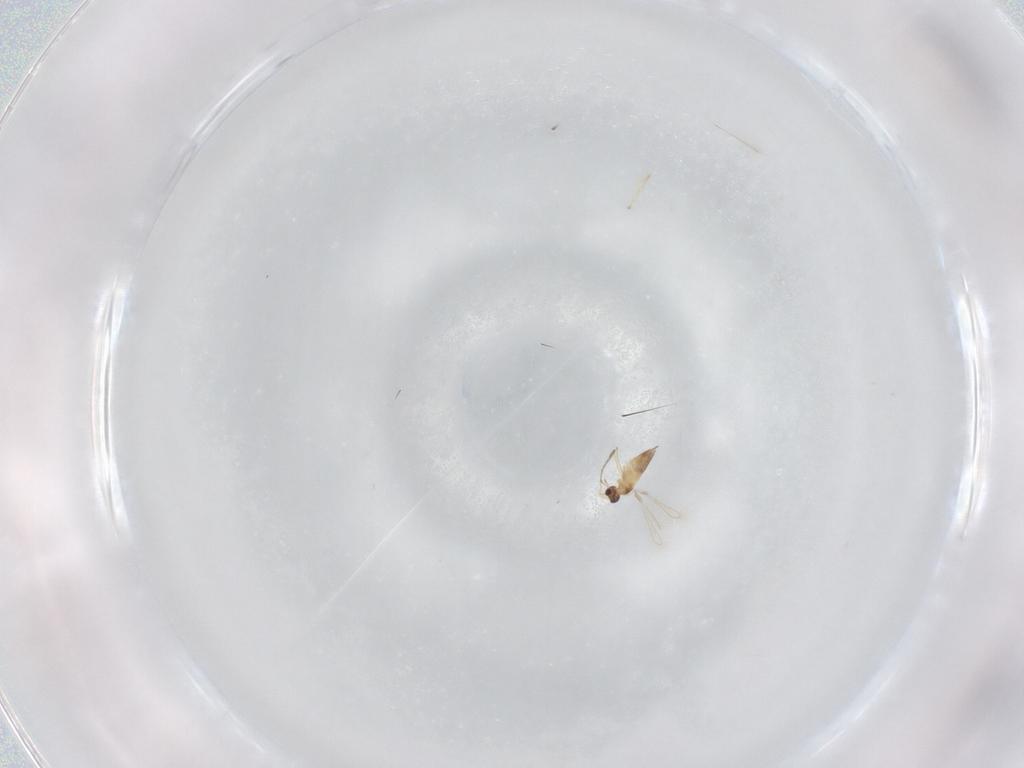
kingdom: Animalia
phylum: Arthropoda
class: Insecta
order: Hymenoptera
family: Mymaridae
